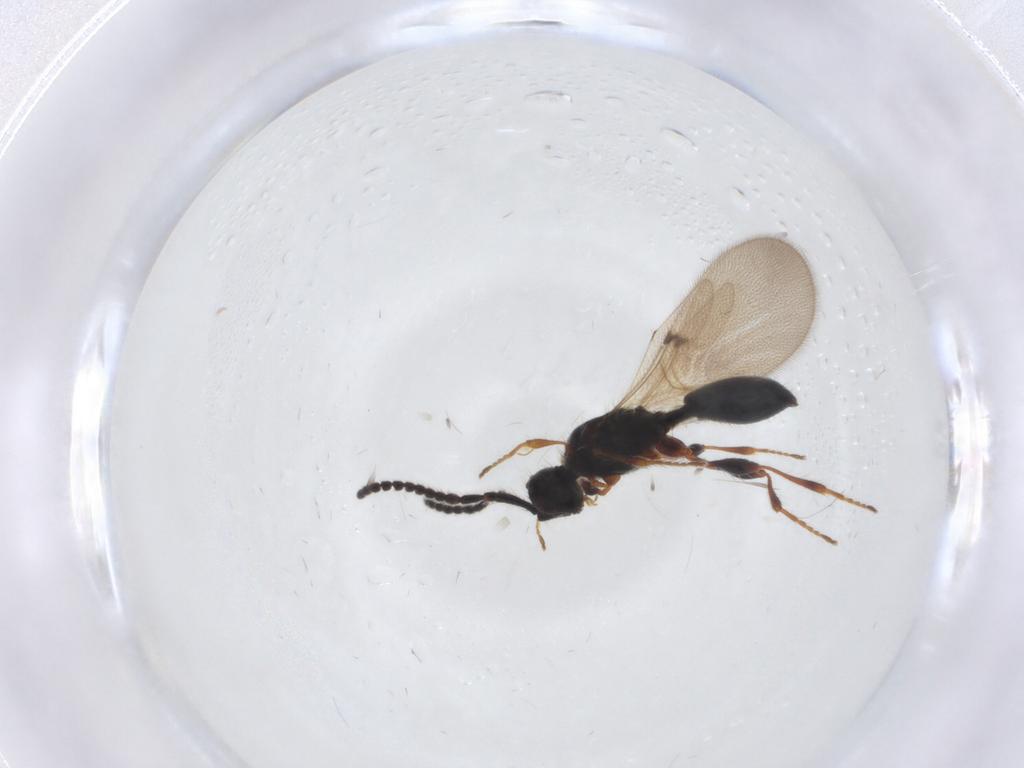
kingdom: Animalia
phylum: Arthropoda
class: Insecta
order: Hymenoptera
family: Diapriidae
